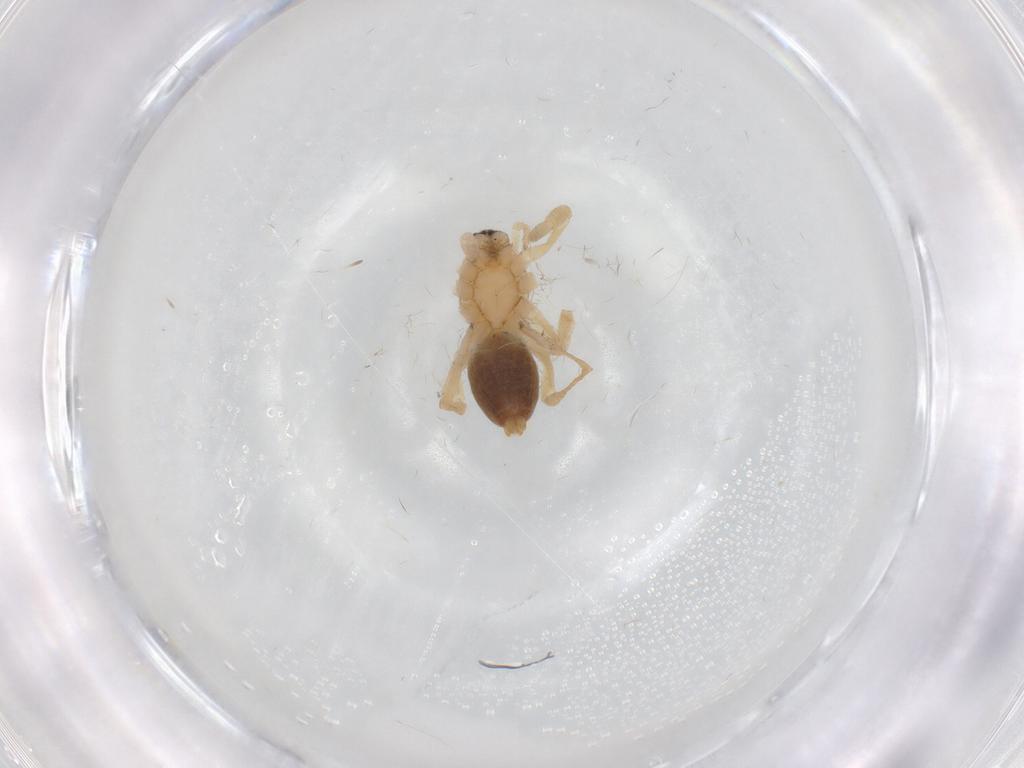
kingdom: Animalia
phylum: Arthropoda
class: Arachnida
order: Araneae
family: Clubionidae
